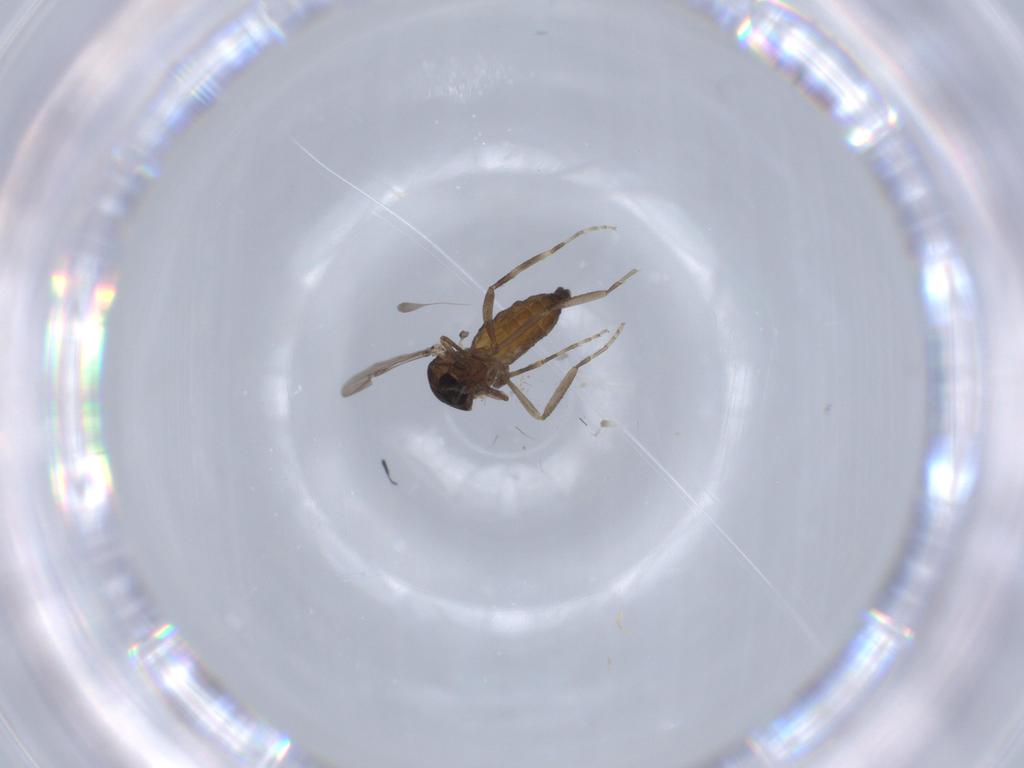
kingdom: Animalia
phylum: Arthropoda
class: Insecta
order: Diptera
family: Ceratopogonidae
